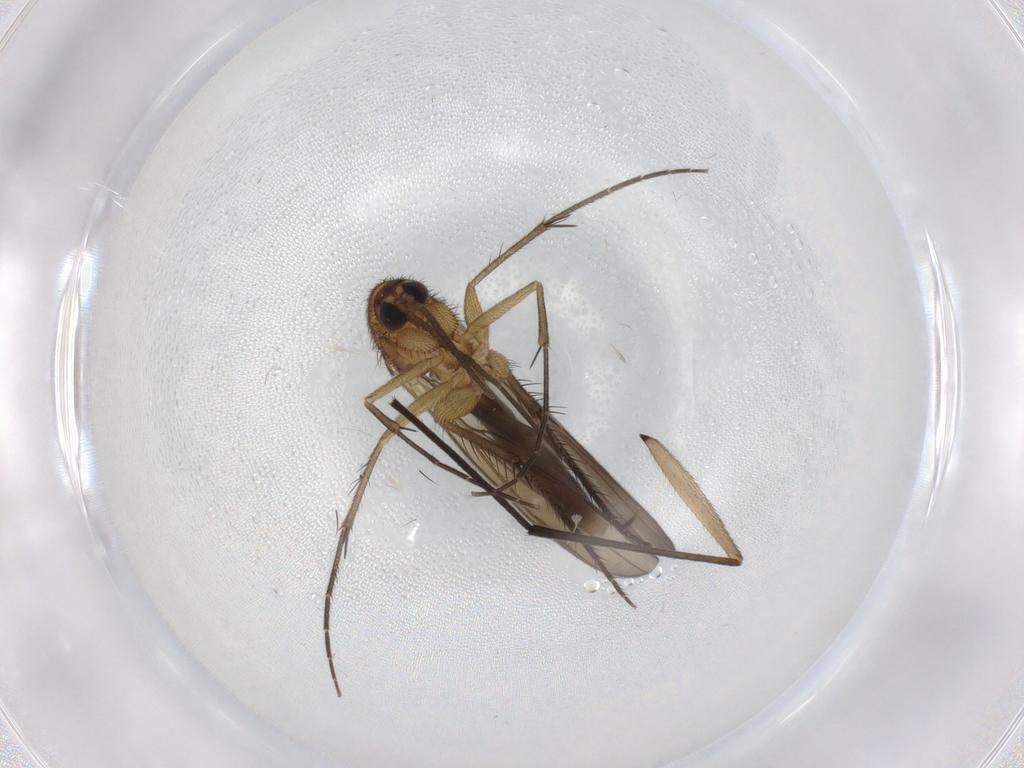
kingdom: Animalia
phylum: Arthropoda
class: Insecta
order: Diptera
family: Cecidomyiidae
